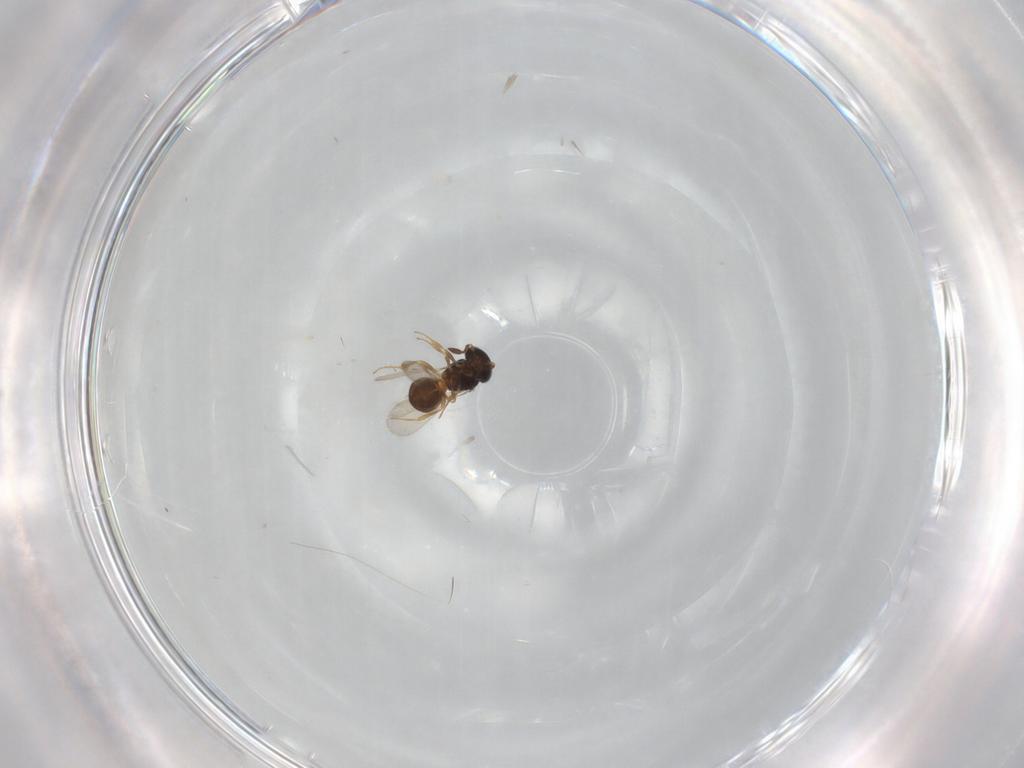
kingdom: Animalia
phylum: Arthropoda
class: Insecta
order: Hymenoptera
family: Scelionidae
